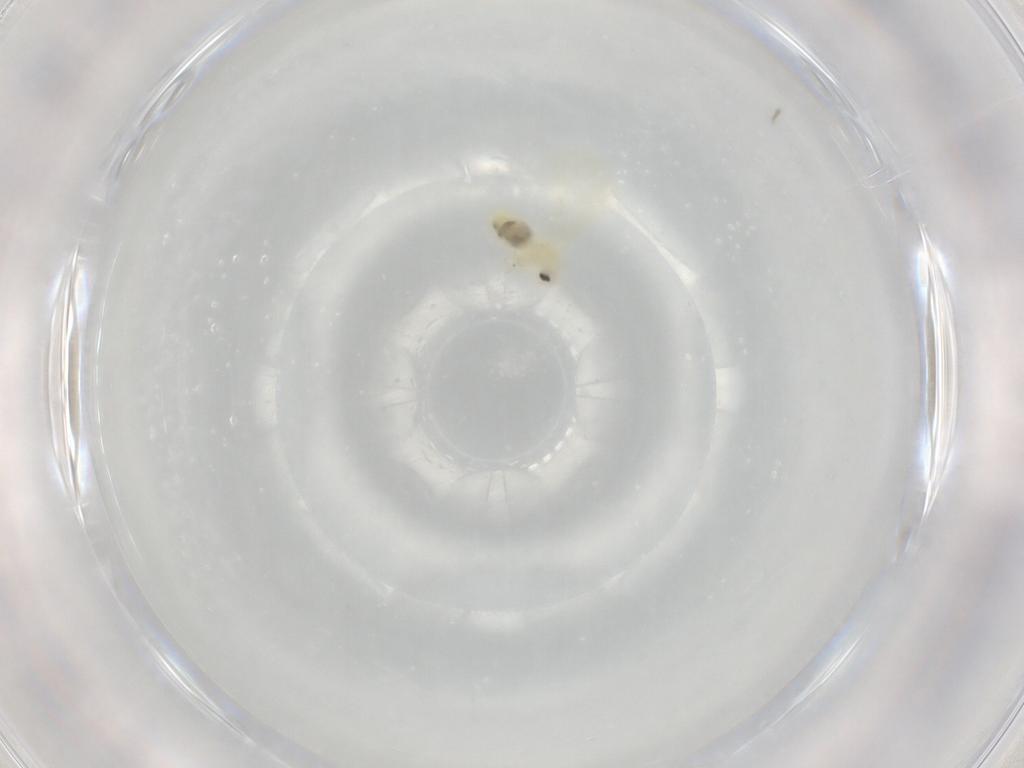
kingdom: Animalia
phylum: Arthropoda
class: Insecta
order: Hemiptera
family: Aleyrodidae
